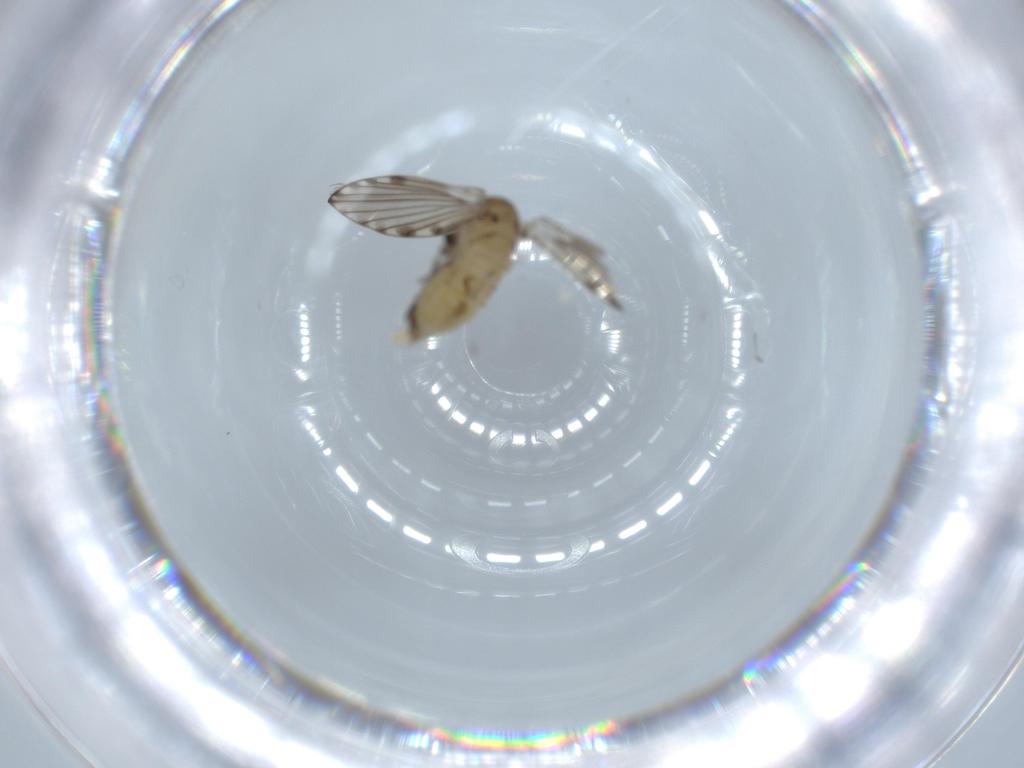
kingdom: Animalia
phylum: Arthropoda
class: Insecta
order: Diptera
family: Psychodidae
